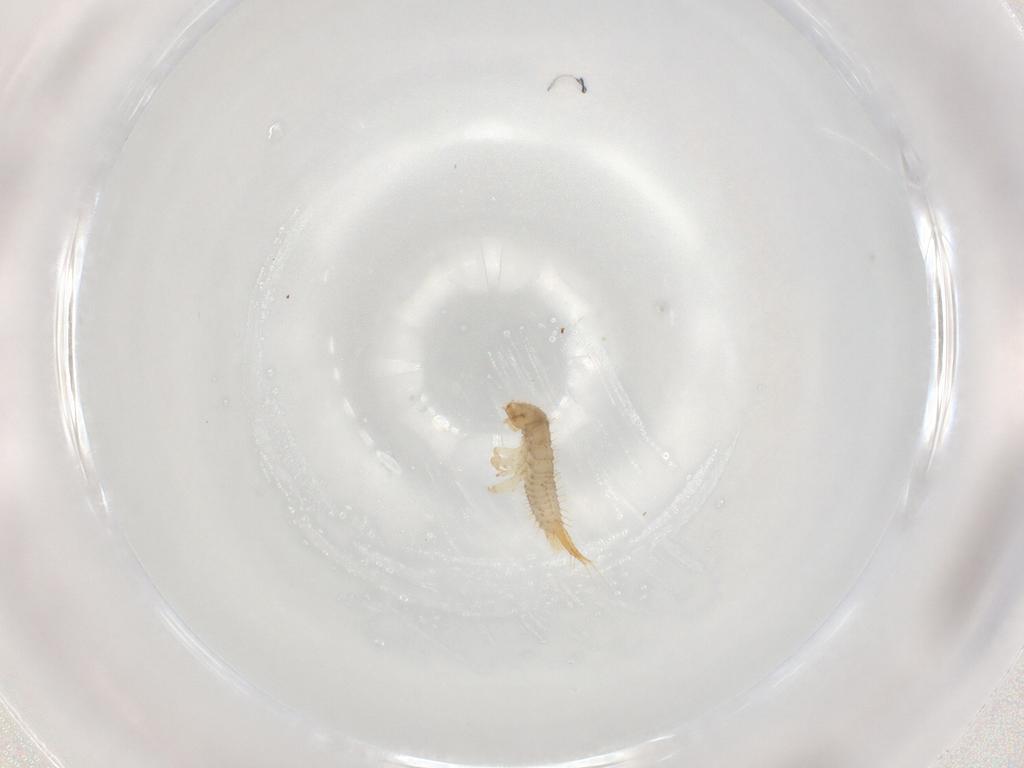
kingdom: Animalia
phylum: Arthropoda
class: Insecta
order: Coleoptera
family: Staphylinidae
